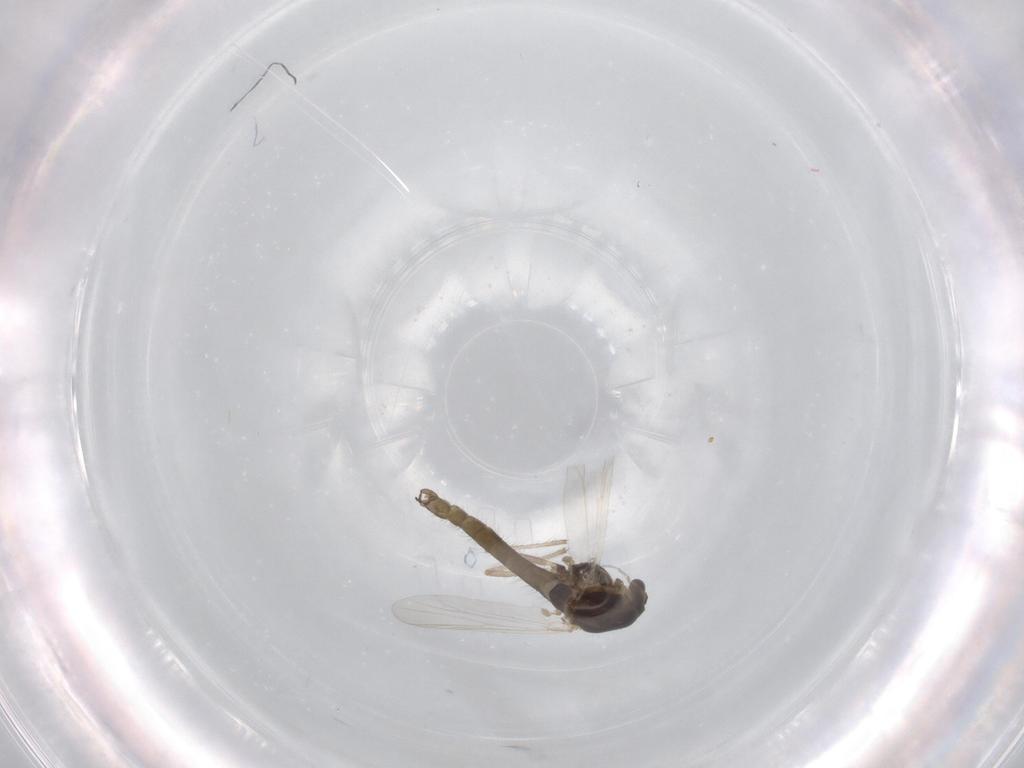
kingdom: Animalia
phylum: Arthropoda
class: Insecta
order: Diptera
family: Chironomidae
